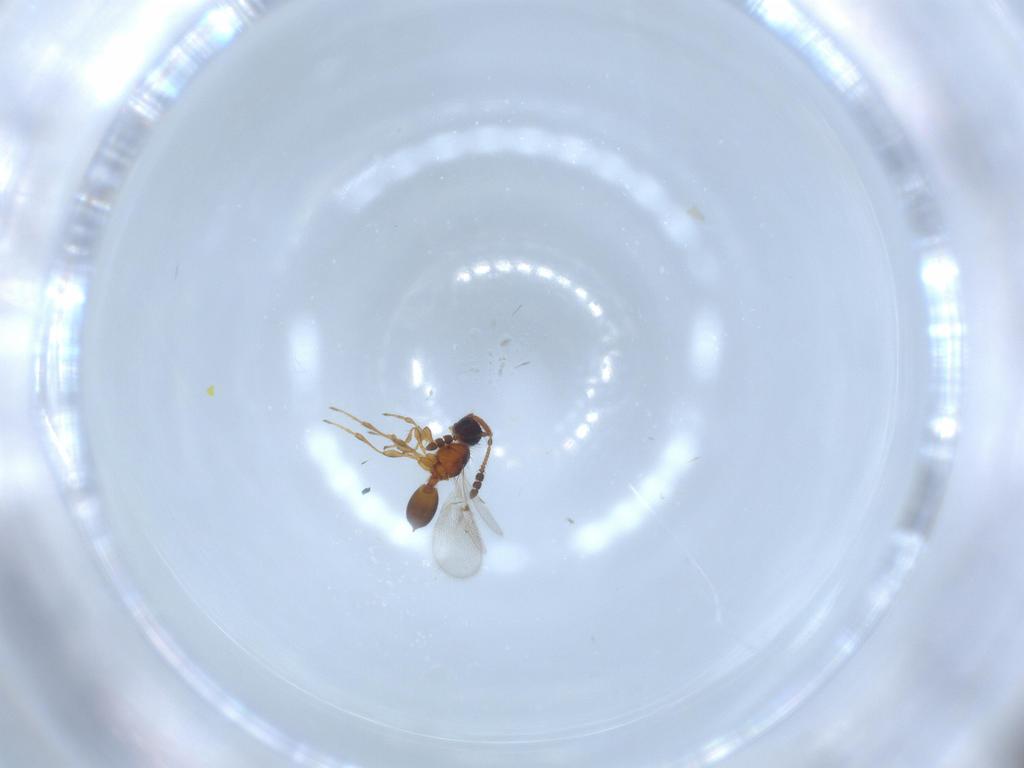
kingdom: Animalia
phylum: Arthropoda
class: Insecta
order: Hymenoptera
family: Diapriidae
